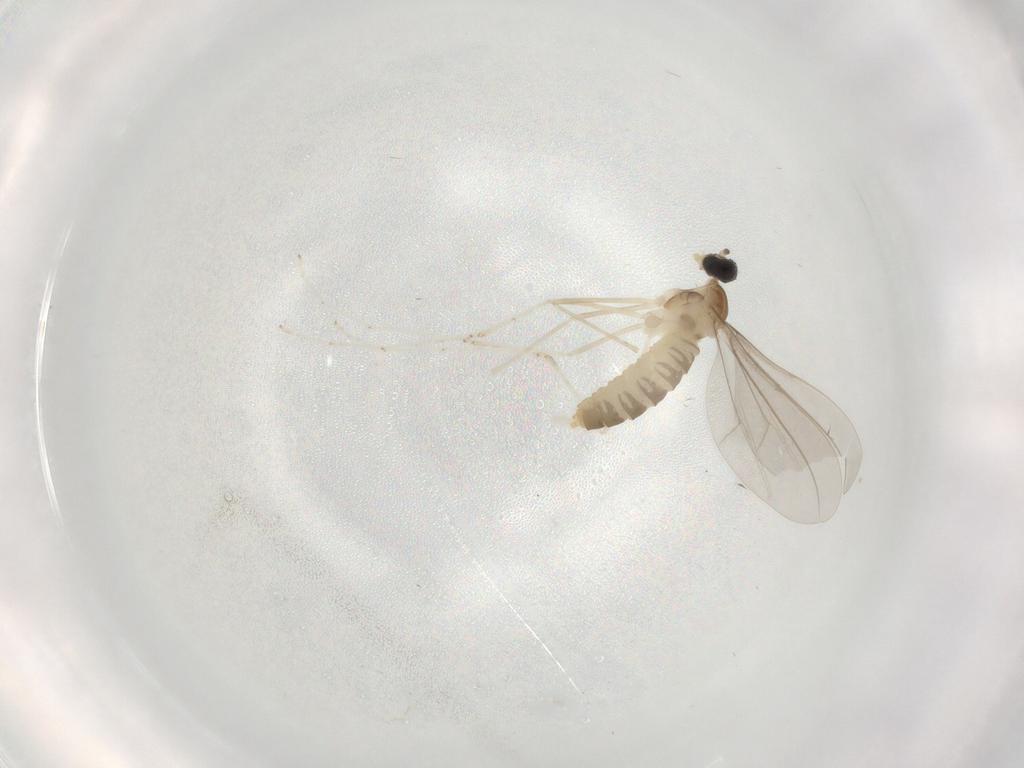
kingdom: Animalia
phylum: Arthropoda
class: Insecta
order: Diptera
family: Cecidomyiidae
